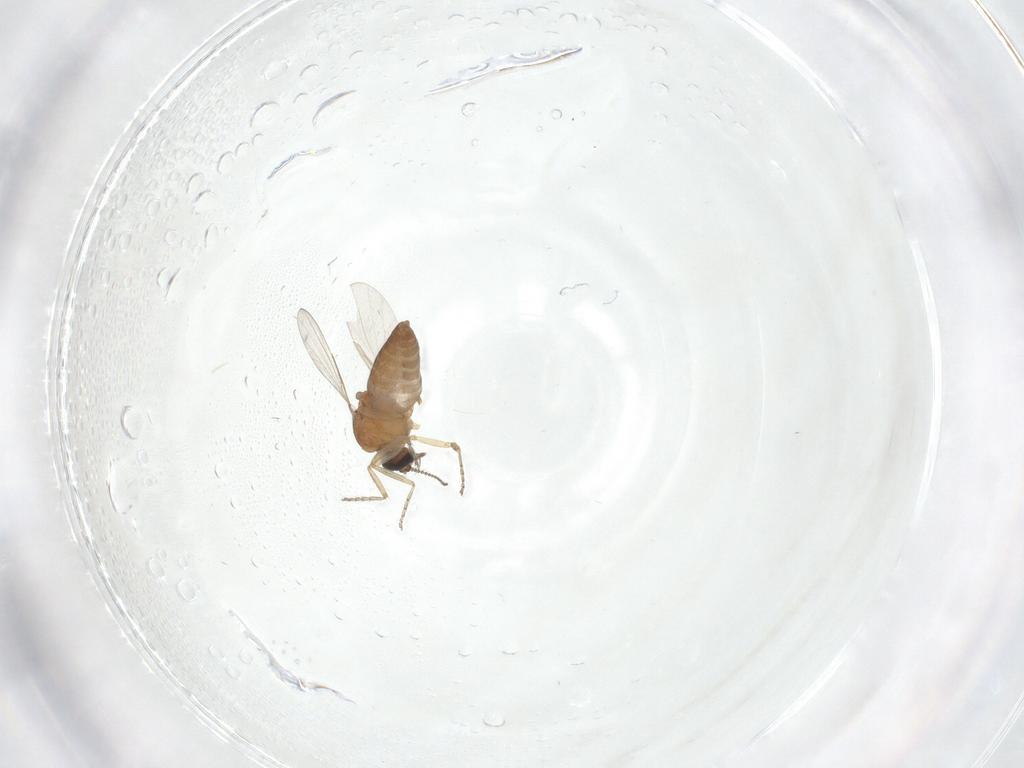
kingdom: Animalia
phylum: Arthropoda
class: Insecta
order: Diptera
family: Ceratopogonidae
